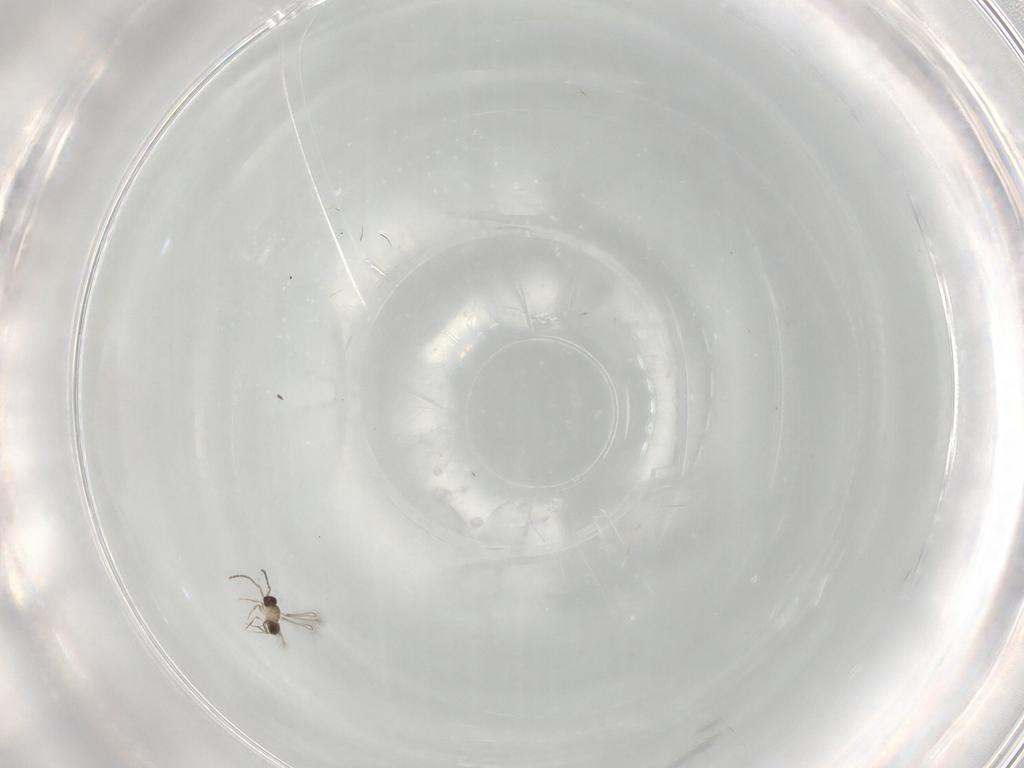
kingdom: Animalia
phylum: Arthropoda
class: Insecta
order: Hymenoptera
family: Mymaridae
